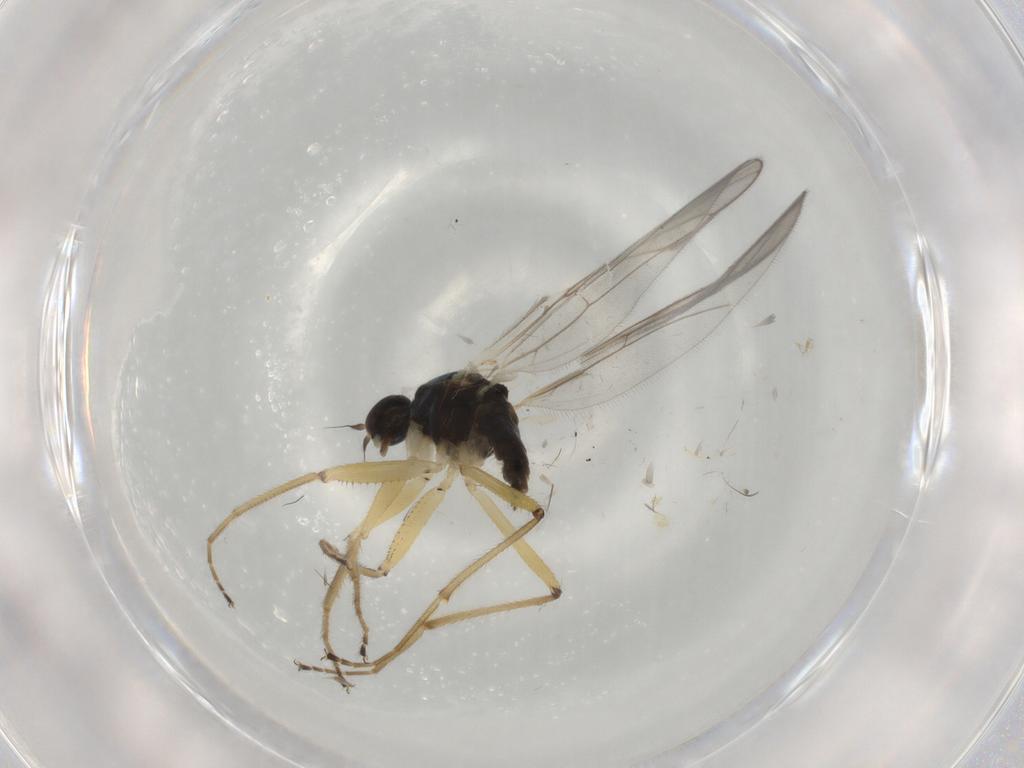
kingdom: Animalia
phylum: Arthropoda
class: Insecta
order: Diptera
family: Hybotidae
